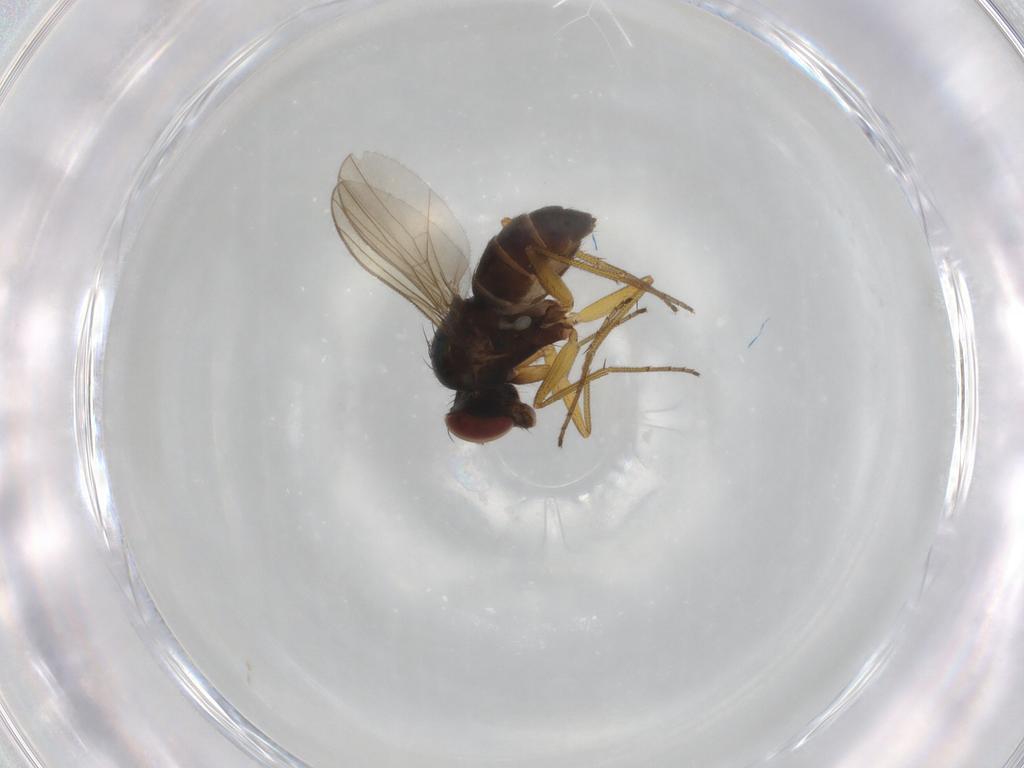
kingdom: Animalia
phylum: Arthropoda
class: Insecta
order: Diptera
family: Dolichopodidae
